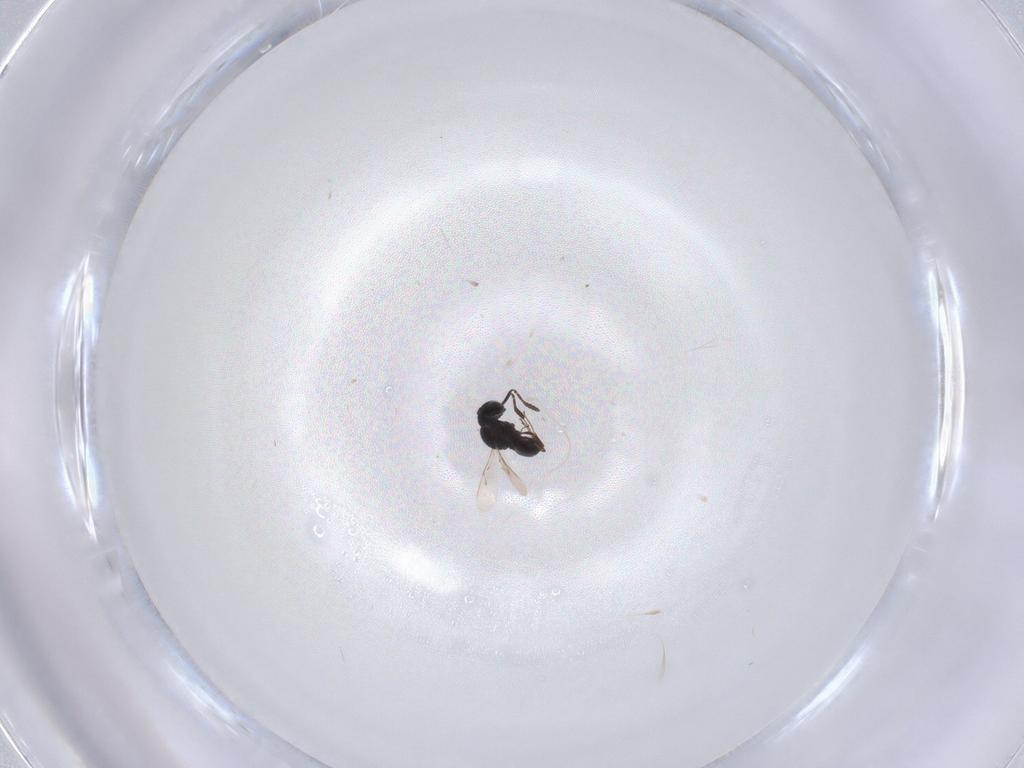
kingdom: Animalia
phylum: Arthropoda
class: Insecta
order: Hymenoptera
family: Scelionidae
